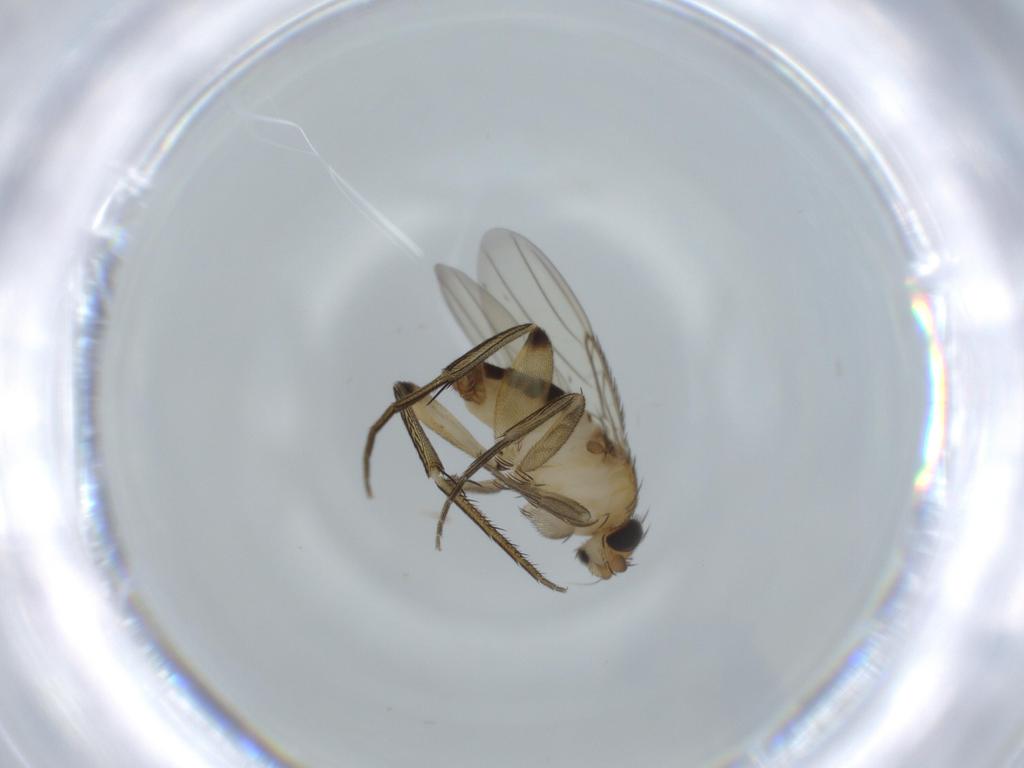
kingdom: Animalia
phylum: Arthropoda
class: Insecta
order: Diptera
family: Phoridae
